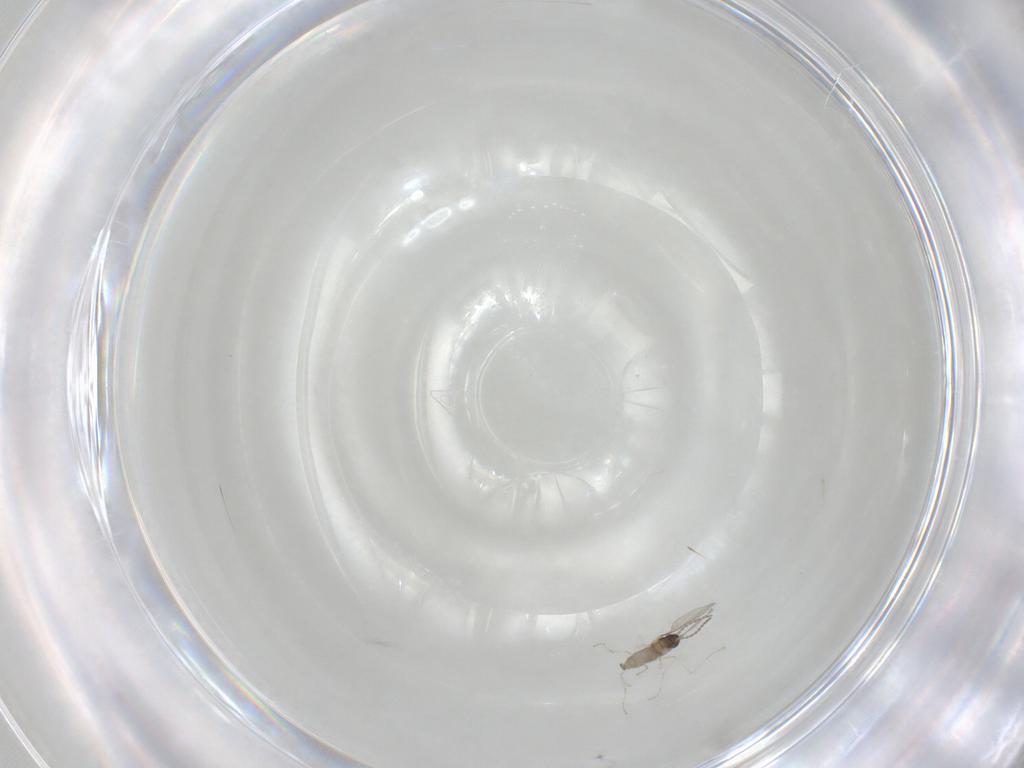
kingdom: Animalia
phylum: Arthropoda
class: Insecta
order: Diptera
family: Cecidomyiidae
